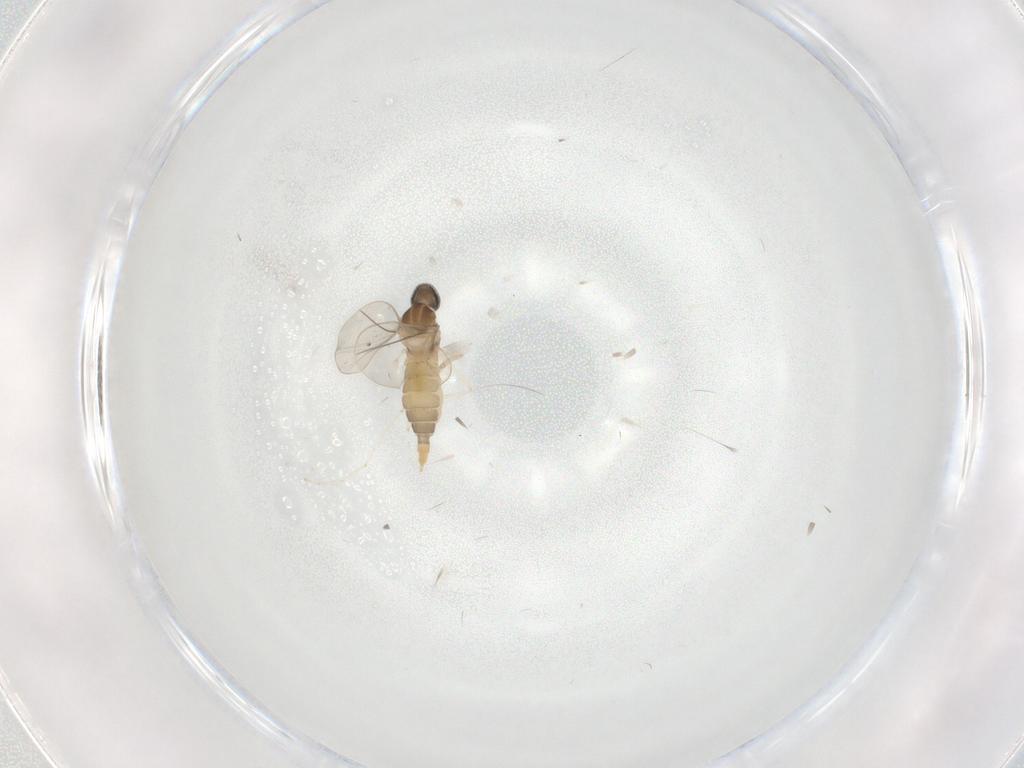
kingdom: Animalia
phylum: Arthropoda
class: Insecta
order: Diptera
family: Cecidomyiidae
